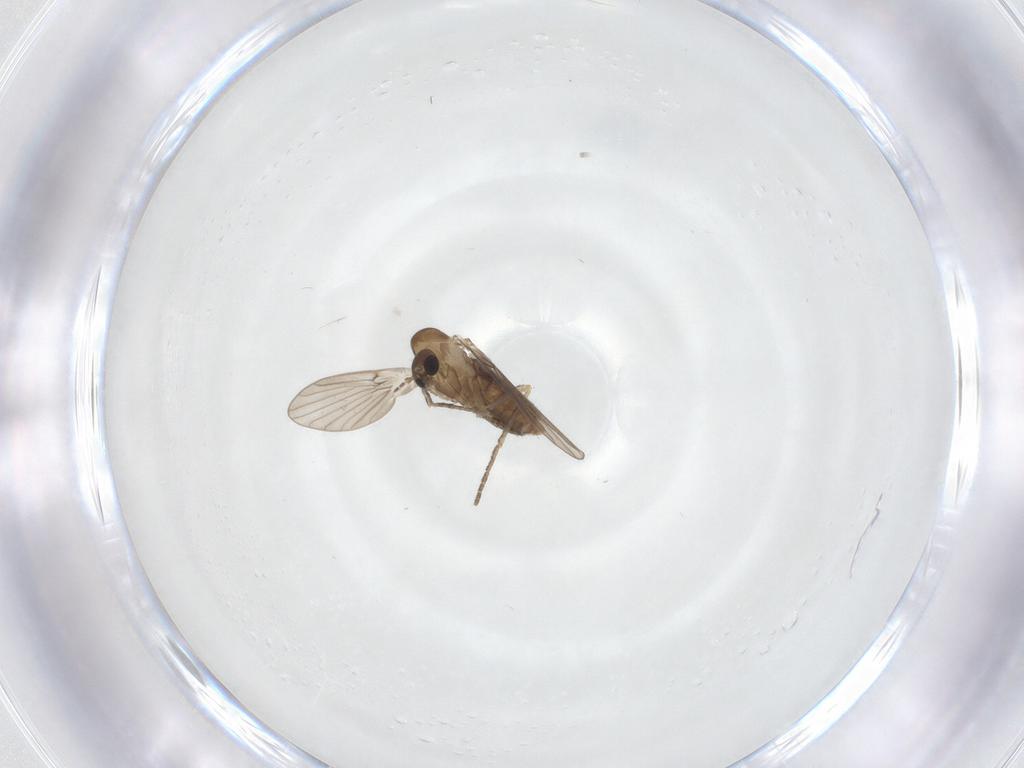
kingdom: Animalia
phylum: Arthropoda
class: Insecta
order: Diptera
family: Psychodidae
